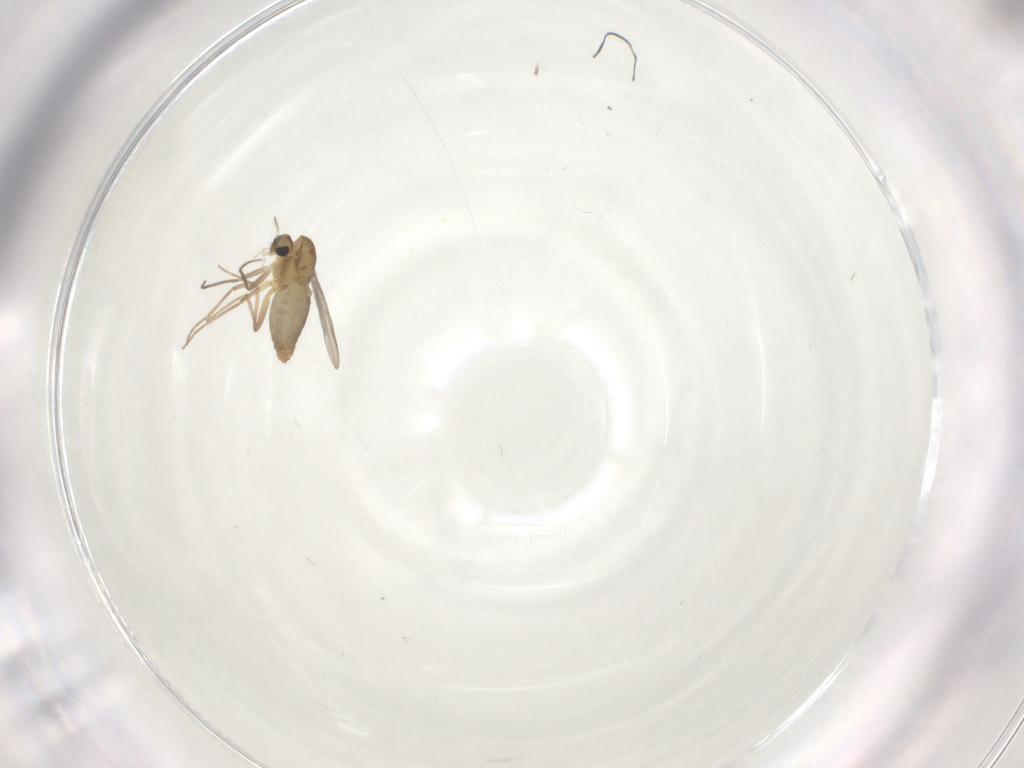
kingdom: Animalia
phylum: Arthropoda
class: Insecta
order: Diptera
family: Chironomidae
